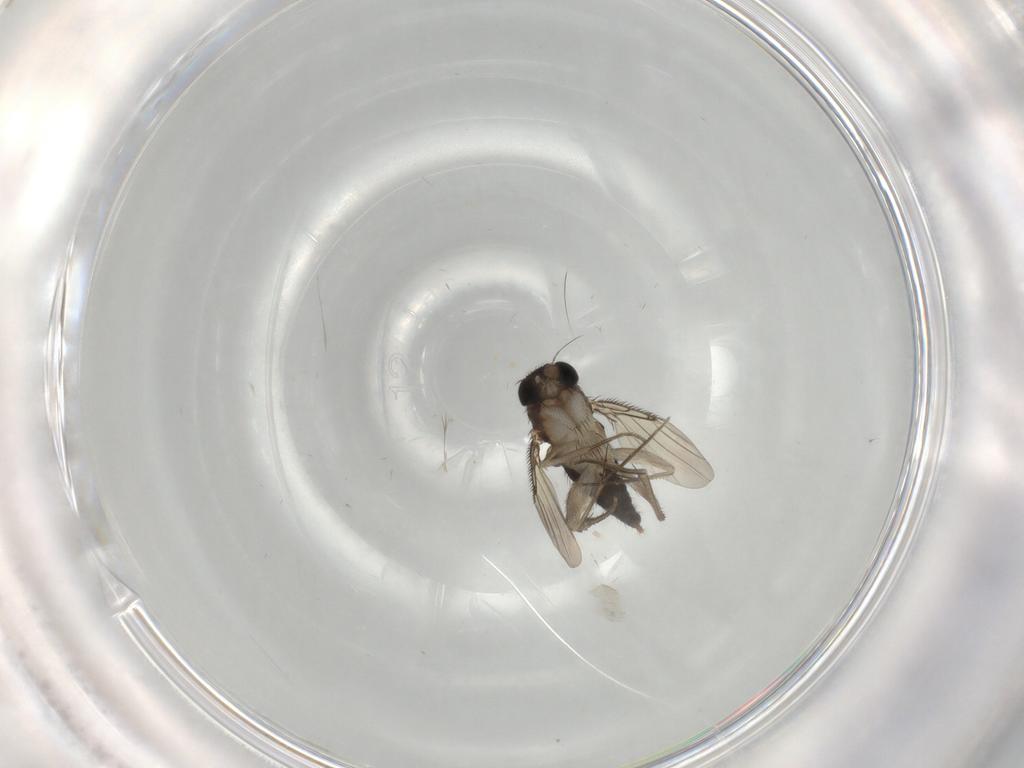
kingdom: Animalia
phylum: Arthropoda
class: Insecta
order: Diptera
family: Phoridae
